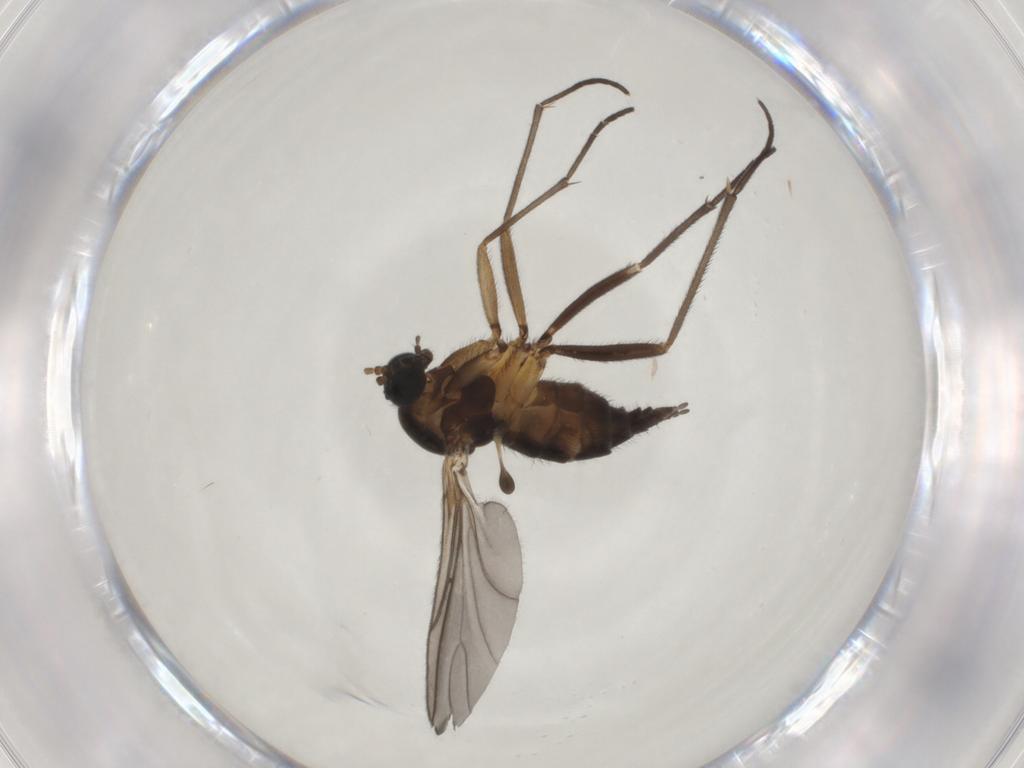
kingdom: Animalia
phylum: Arthropoda
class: Insecta
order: Diptera
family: Sciaridae
